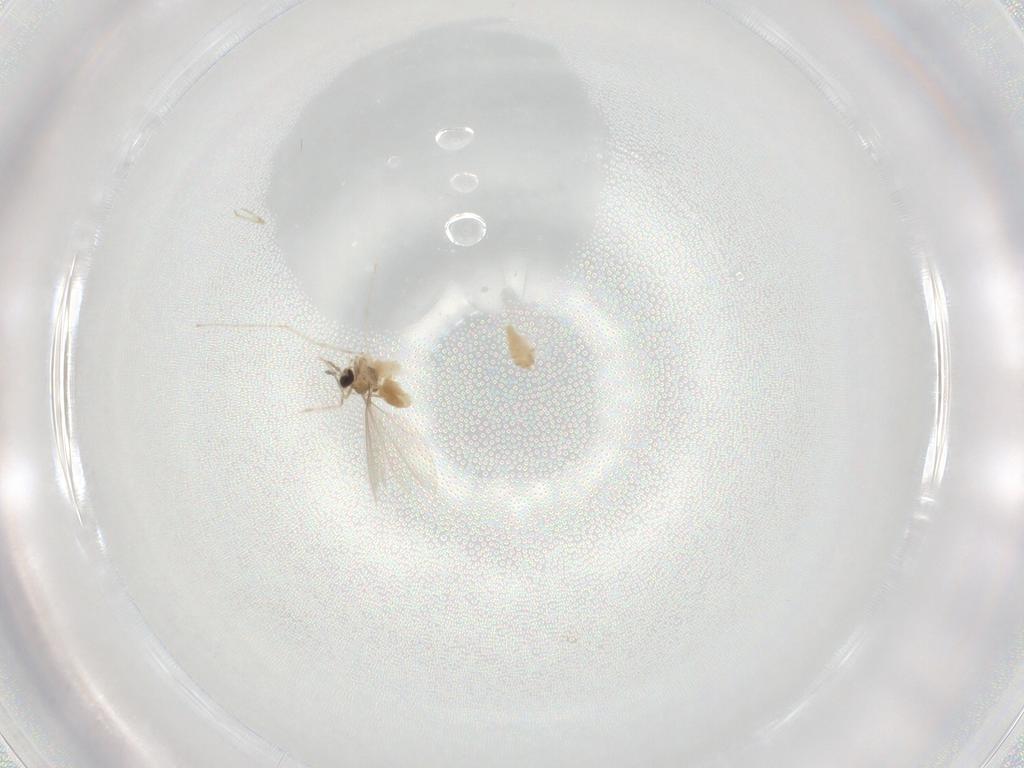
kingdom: Animalia
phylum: Arthropoda
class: Insecta
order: Diptera
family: Cecidomyiidae
